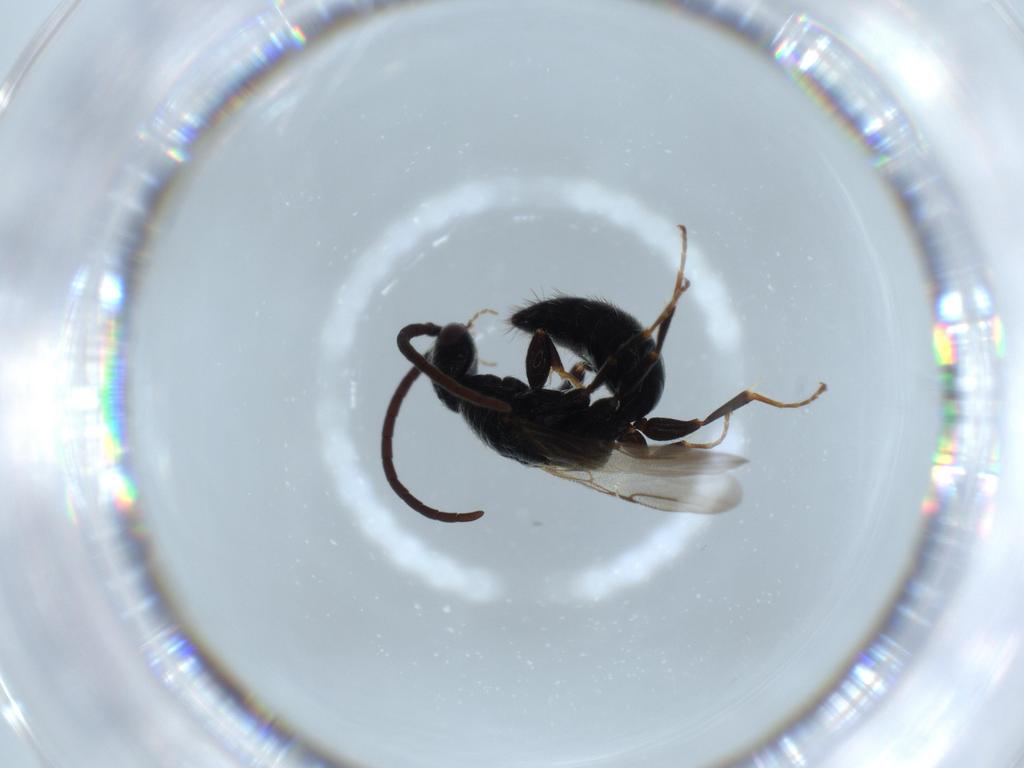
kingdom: Animalia
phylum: Arthropoda
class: Insecta
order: Hymenoptera
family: Bethylidae
